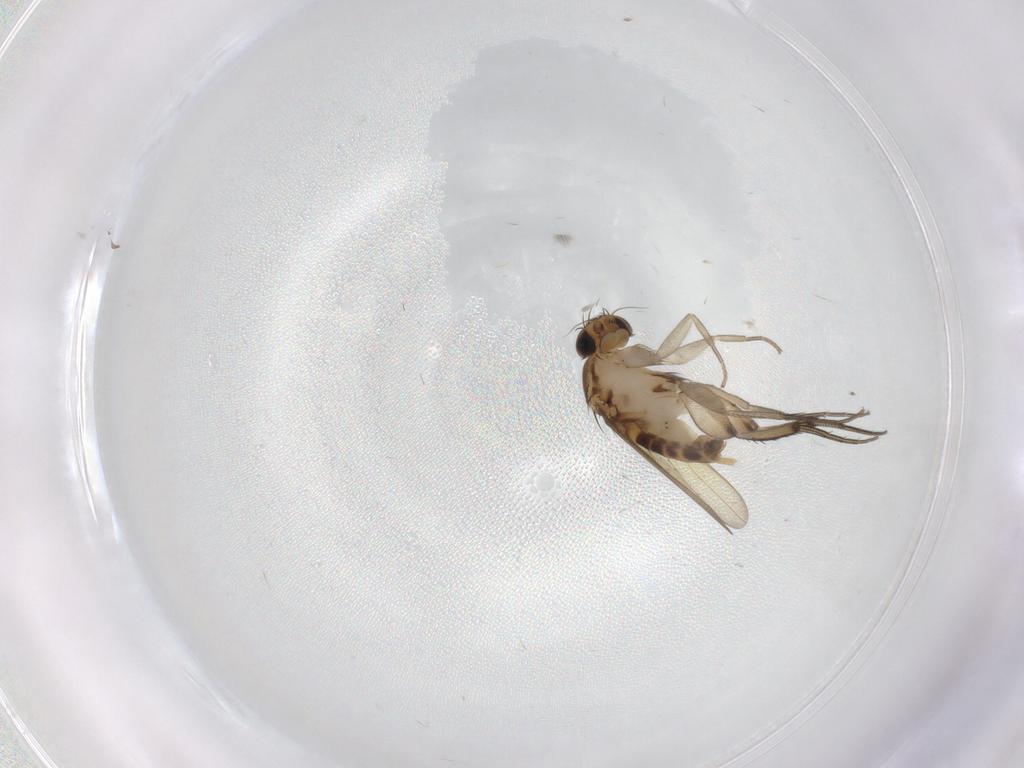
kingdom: Animalia
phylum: Arthropoda
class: Insecta
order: Diptera
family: Phoridae
